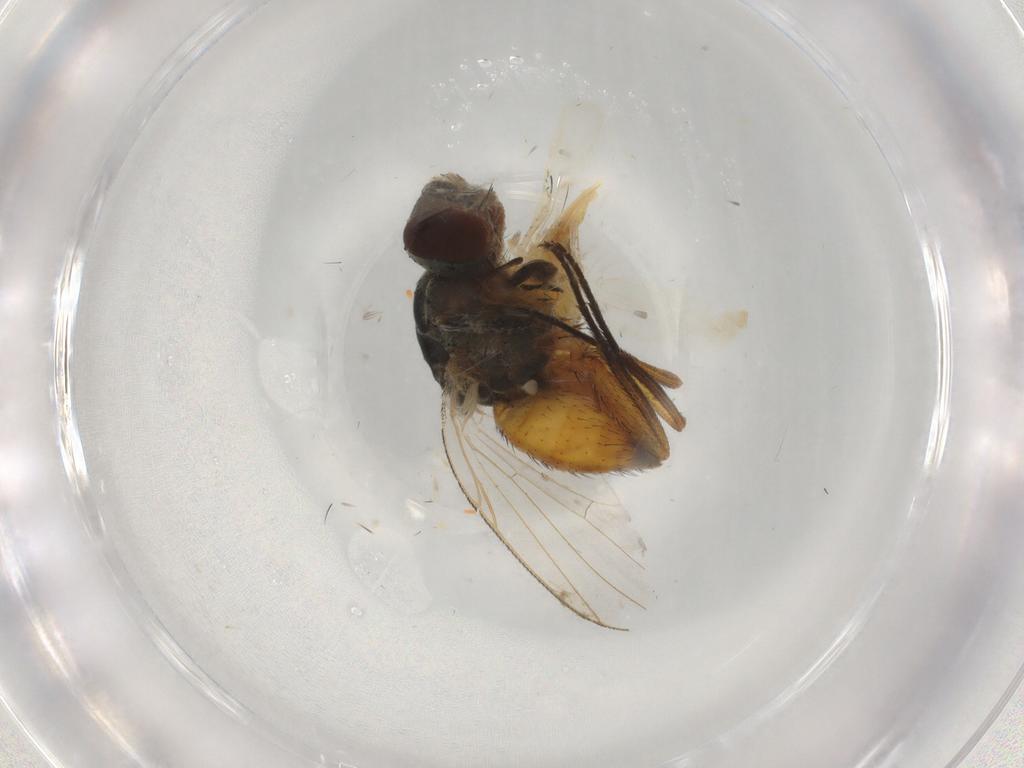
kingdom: Animalia
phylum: Arthropoda
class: Insecta
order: Diptera
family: Muscidae
